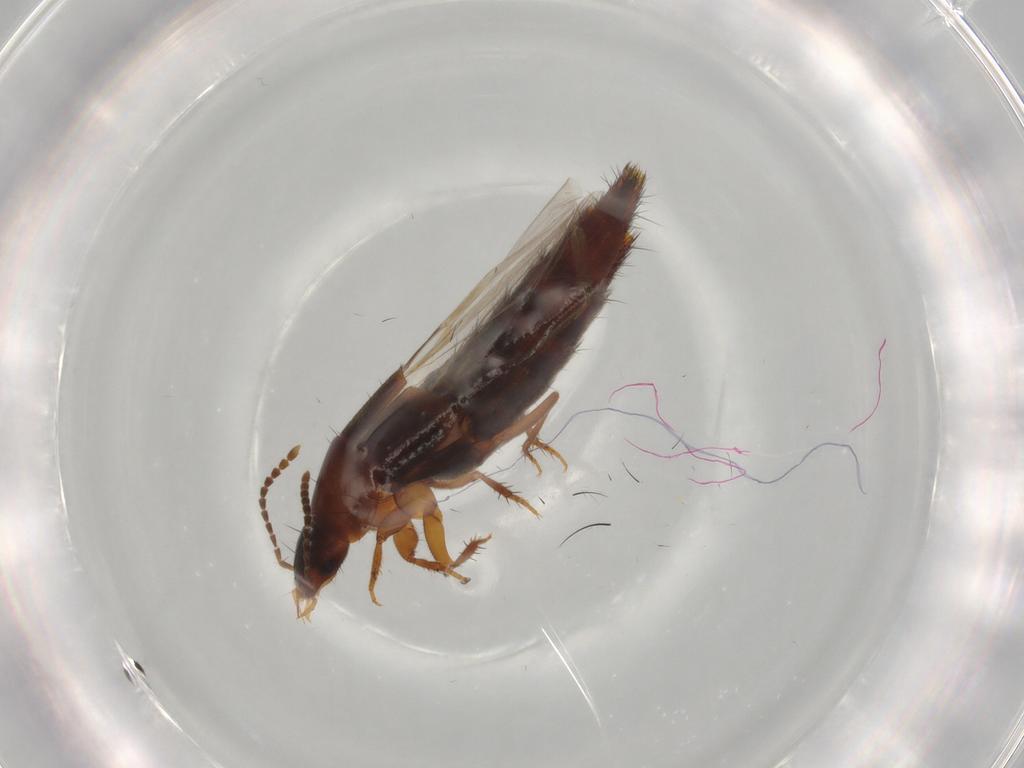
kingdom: Animalia
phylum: Arthropoda
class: Insecta
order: Coleoptera
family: Staphylinidae
